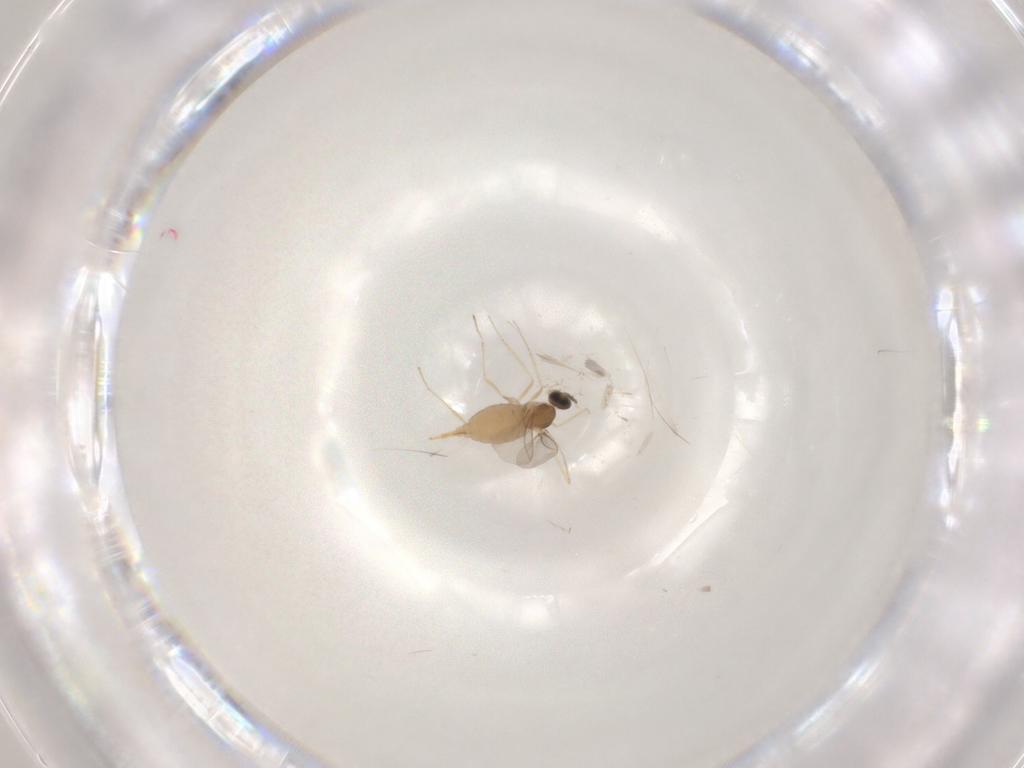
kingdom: Animalia
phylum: Arthropoda
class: Insecta
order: Diptera
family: Cecidomyiidae
